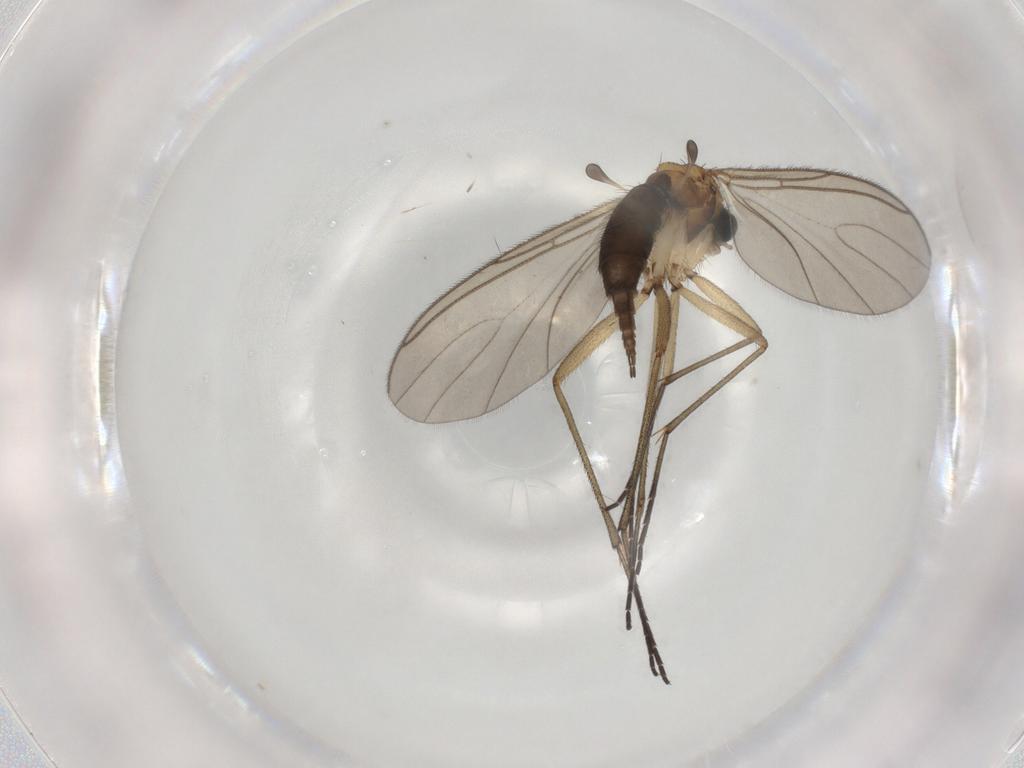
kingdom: Animalia
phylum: Arthropoda
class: Insecta
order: Diptera
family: Sciaridae
